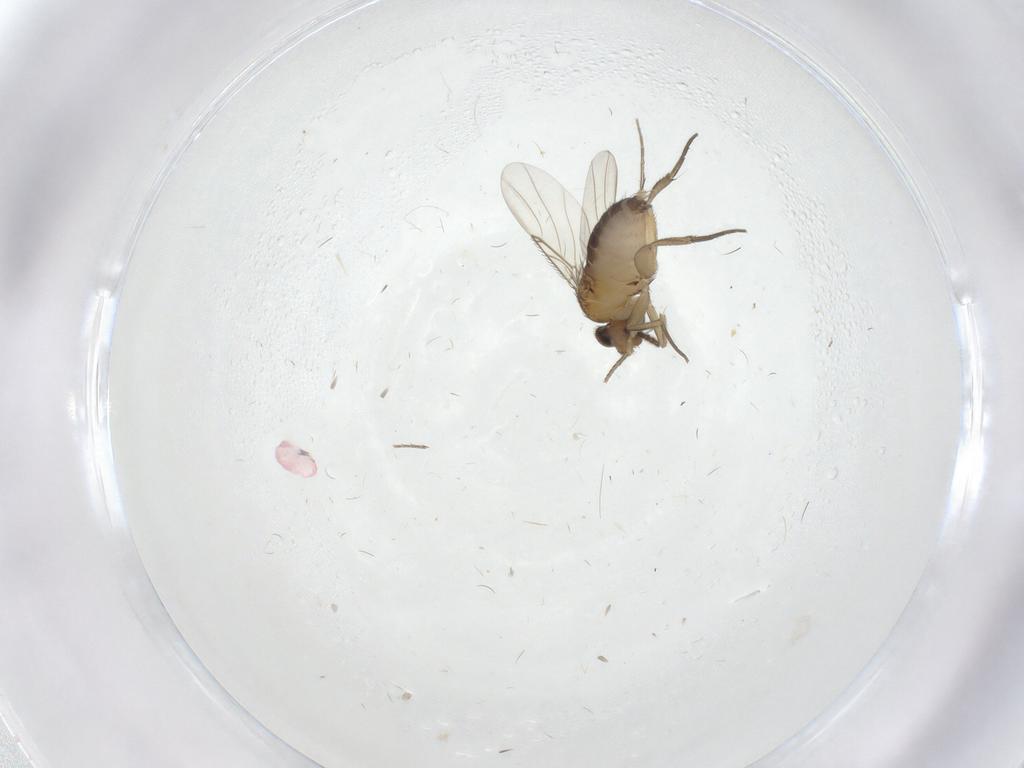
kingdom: Animalia
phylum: Arthropoda
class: Insecta
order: Diptera
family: Phoridae
